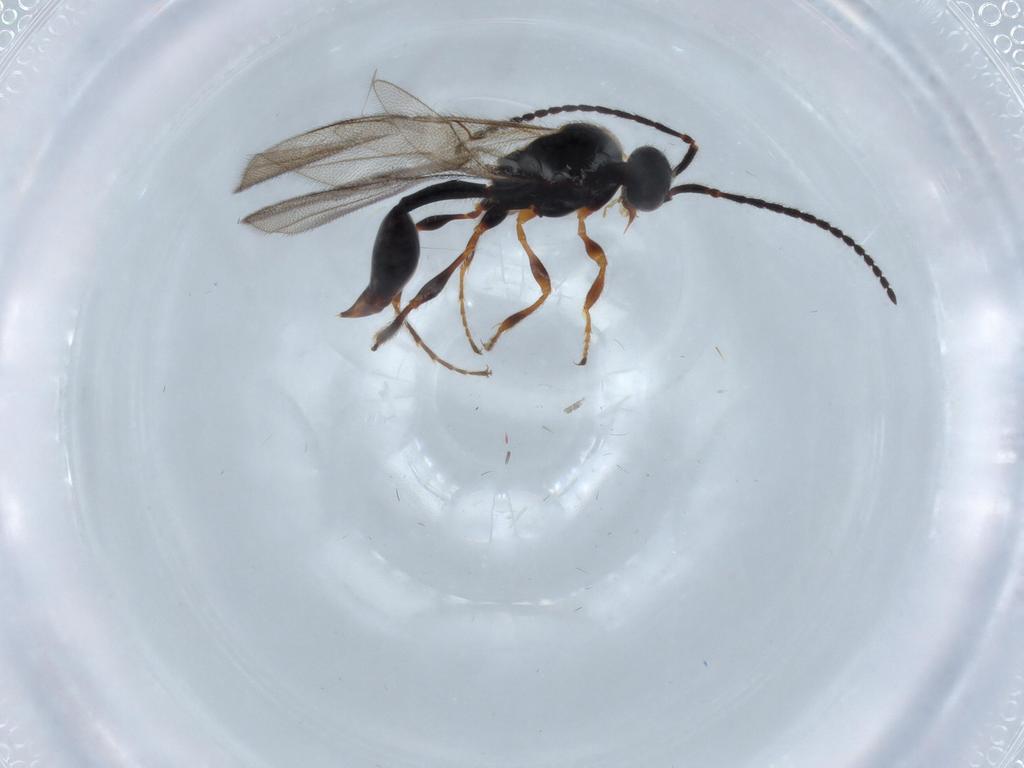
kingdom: Animalia
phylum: Arthropoda
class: Insecta
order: Hymenoptera
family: Diapriidae
